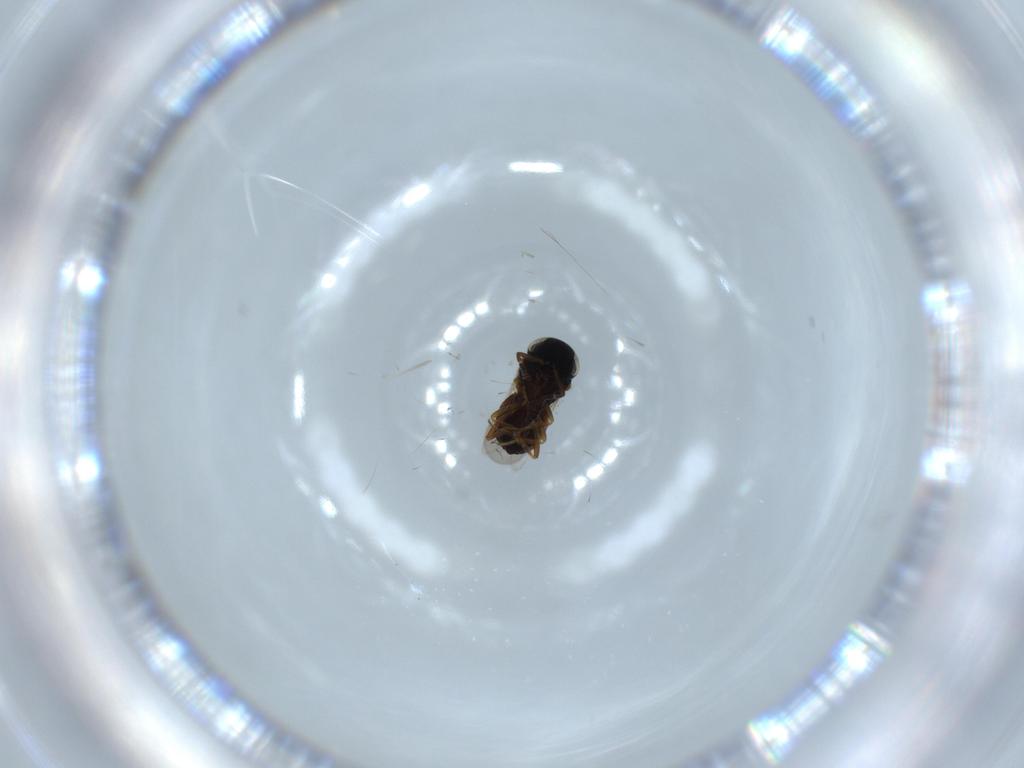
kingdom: Animalia
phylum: Arthropoda
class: Insecta
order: Coleoptera
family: Curculionidae
